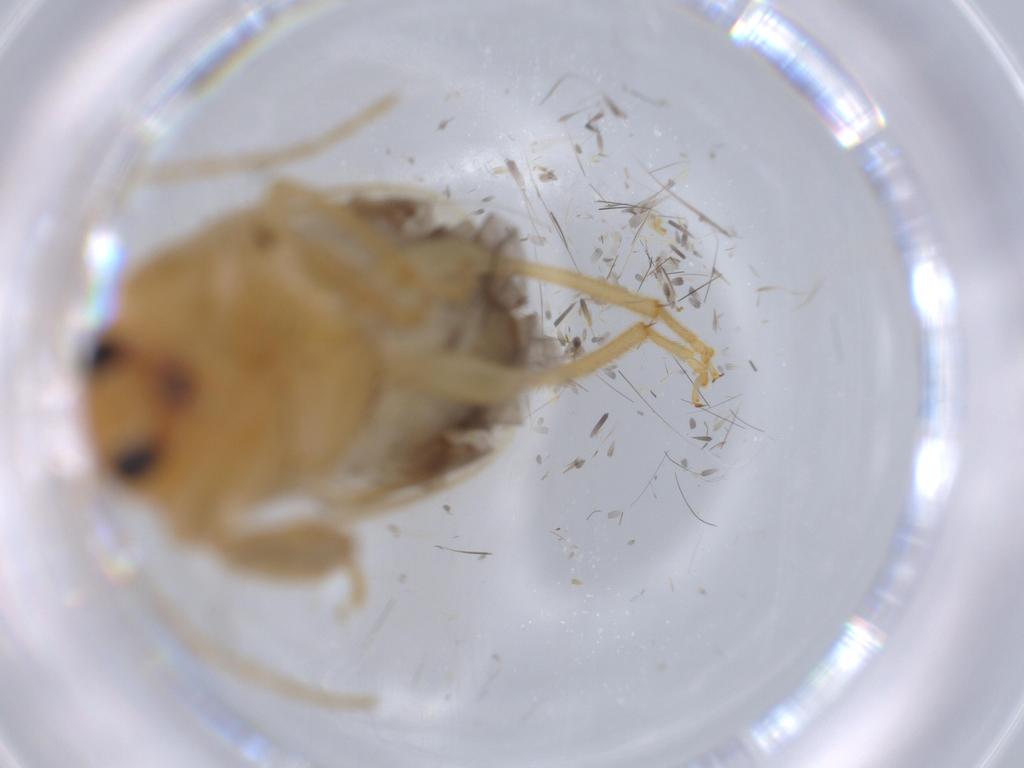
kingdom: Animalia
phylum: Arthropoda
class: Insecta
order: Coleoptera
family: Chrysomelidae
